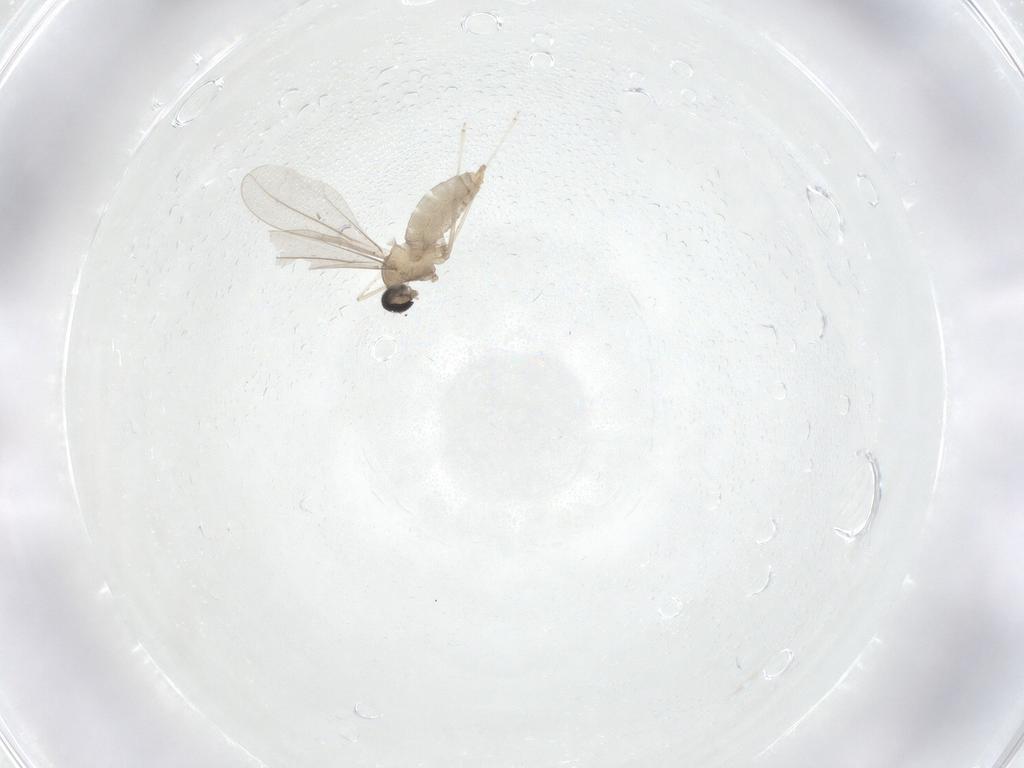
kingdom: Animalia
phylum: Arthropoda
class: Insecta
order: Diptera
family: Cecidomyiidae
